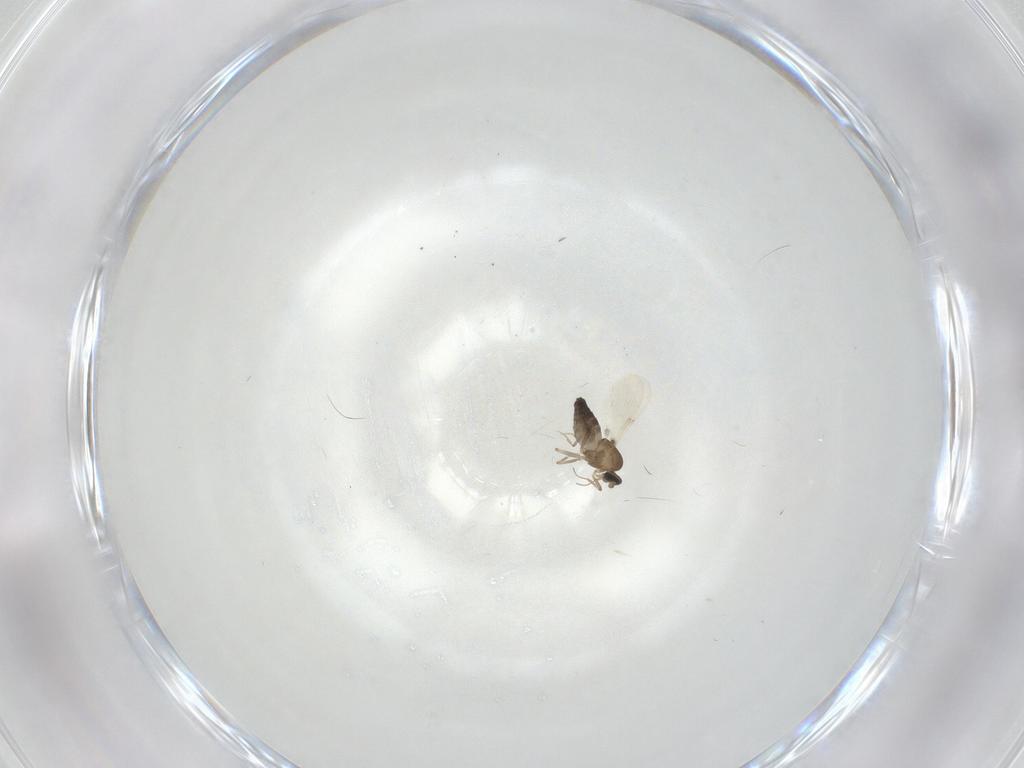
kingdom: Animalia
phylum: Arthropoda
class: Insecta
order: Diptera
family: Ceratopogonidae
